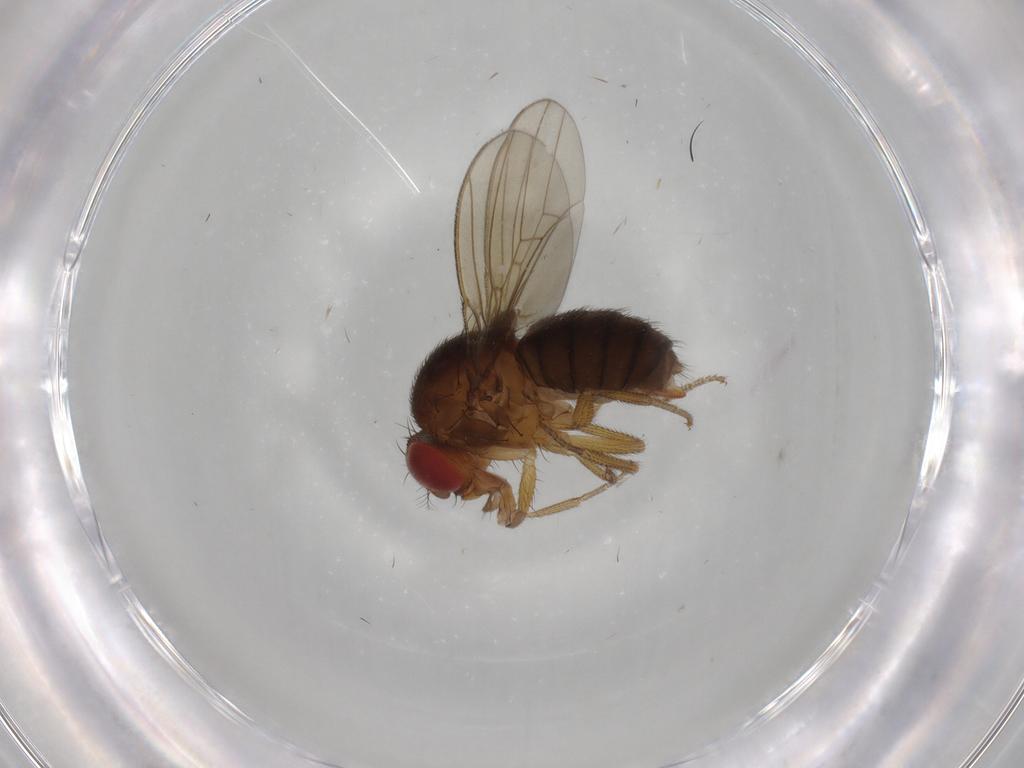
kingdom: Animalia
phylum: Arthropoda
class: Insecta
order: Diptera
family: Drosophilidae
